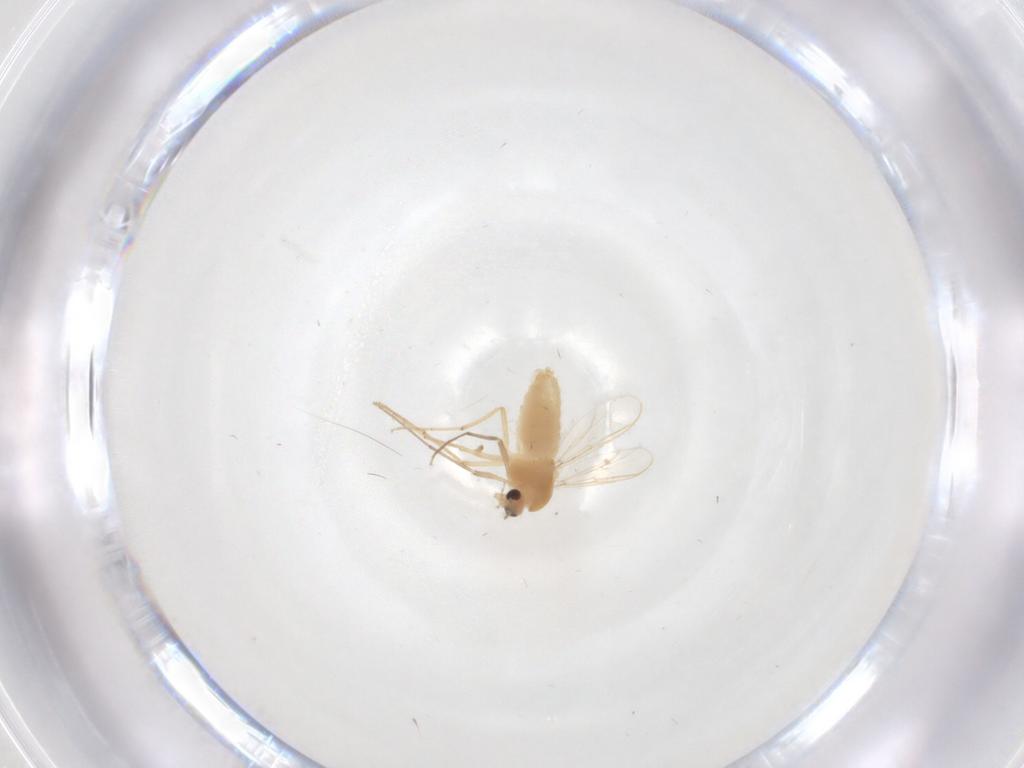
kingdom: Animalia
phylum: Arthropoda
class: Insecta
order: Diptera
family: Chironomidae
